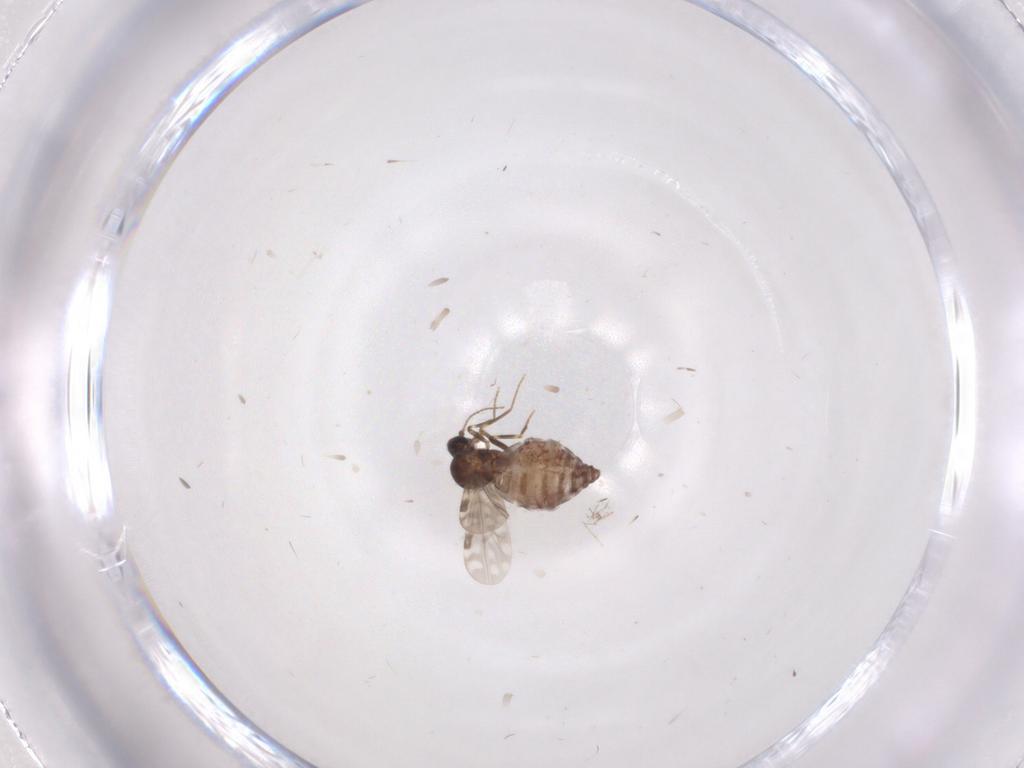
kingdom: Animalia
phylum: Arthropoda
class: Insecta
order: Diptera
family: Sciaridae
